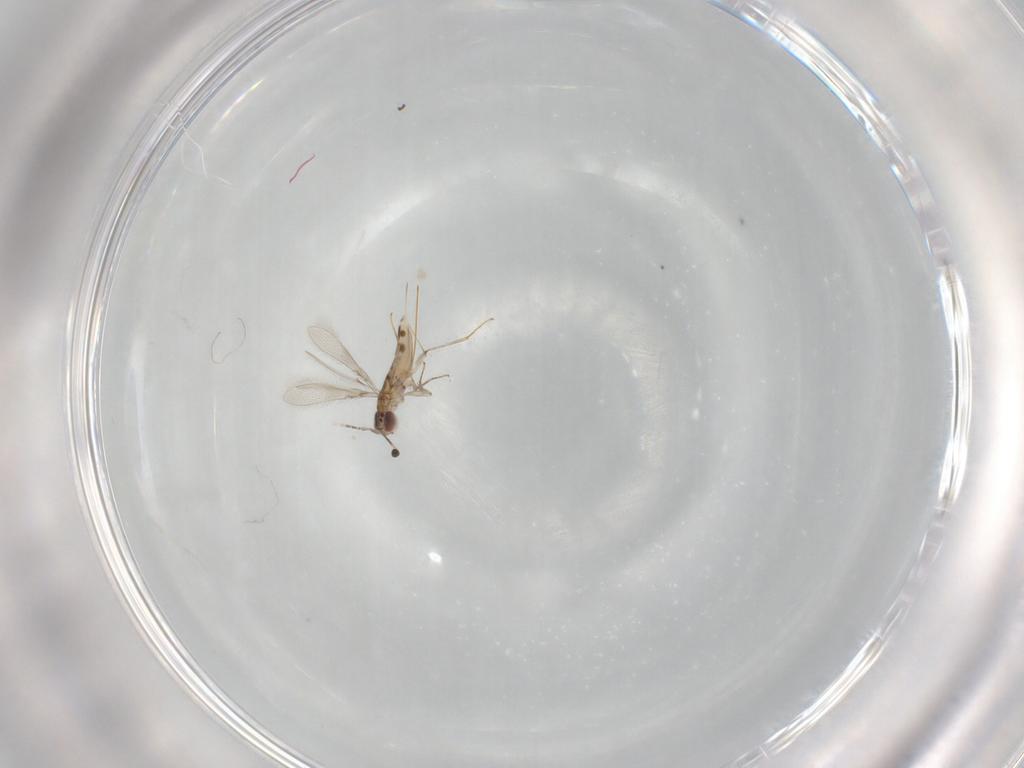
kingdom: Animalia
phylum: Arthropoda
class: Insecta
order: Hymenoptera
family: Mymaridae
